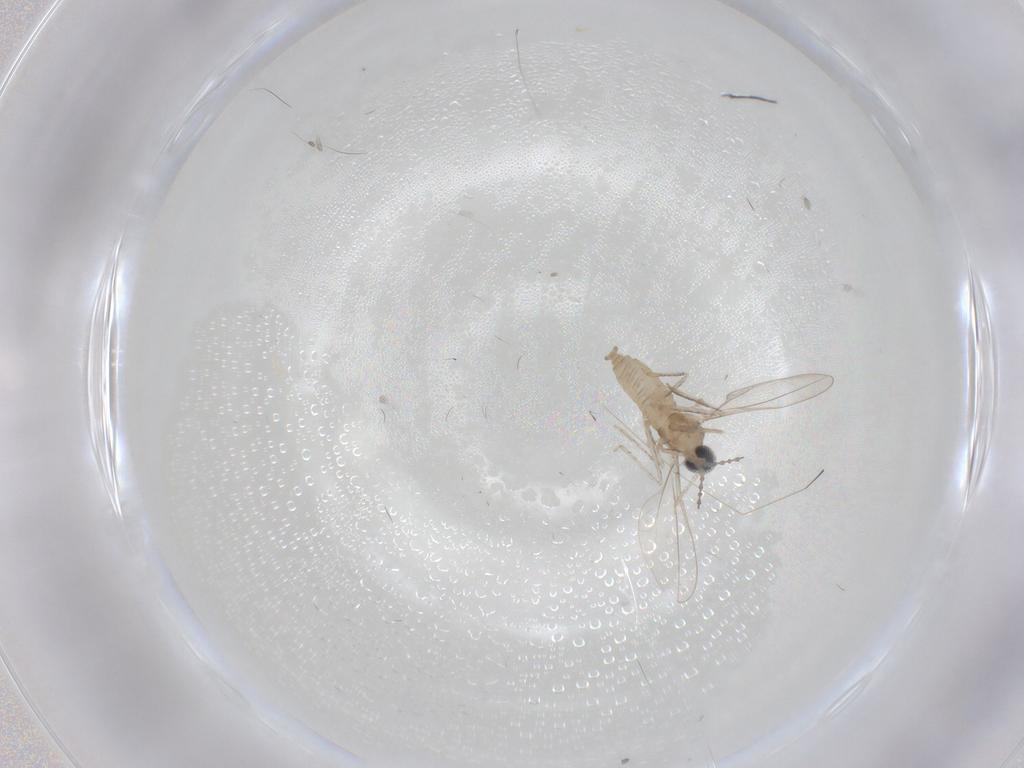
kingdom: Animalia
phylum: Arthropoda
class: Insecta
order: Diptera
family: Cecidomyiidae
